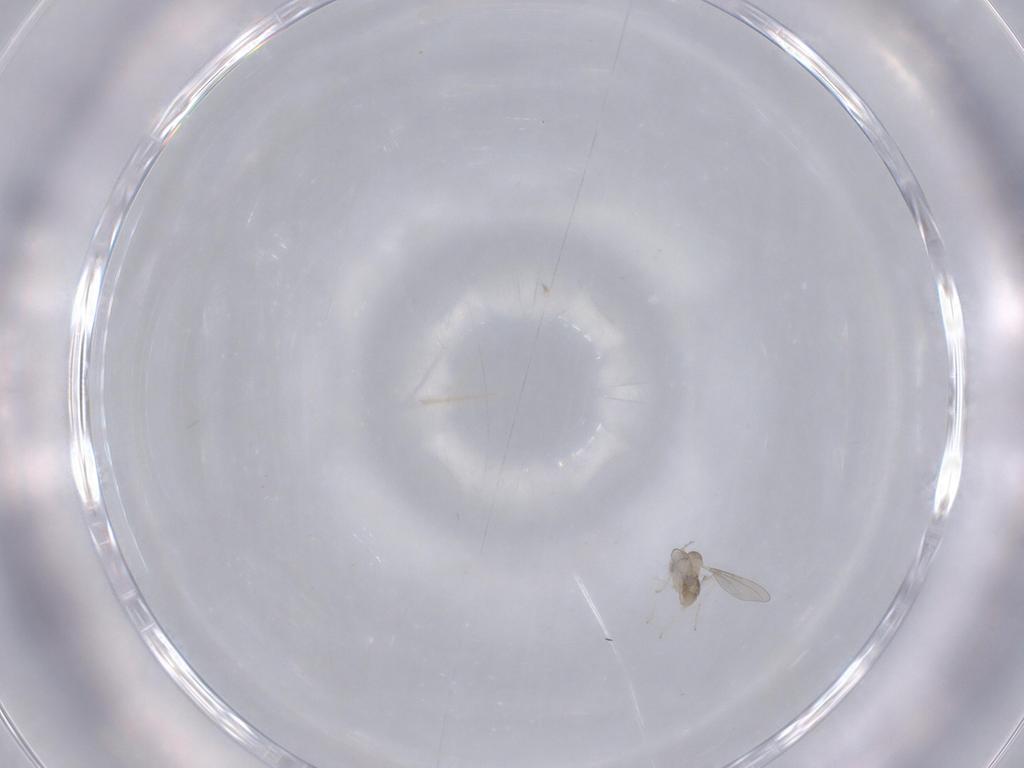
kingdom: Animalia
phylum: Arthropoda
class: Insecta
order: Diptera
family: Cecidomyiidae
